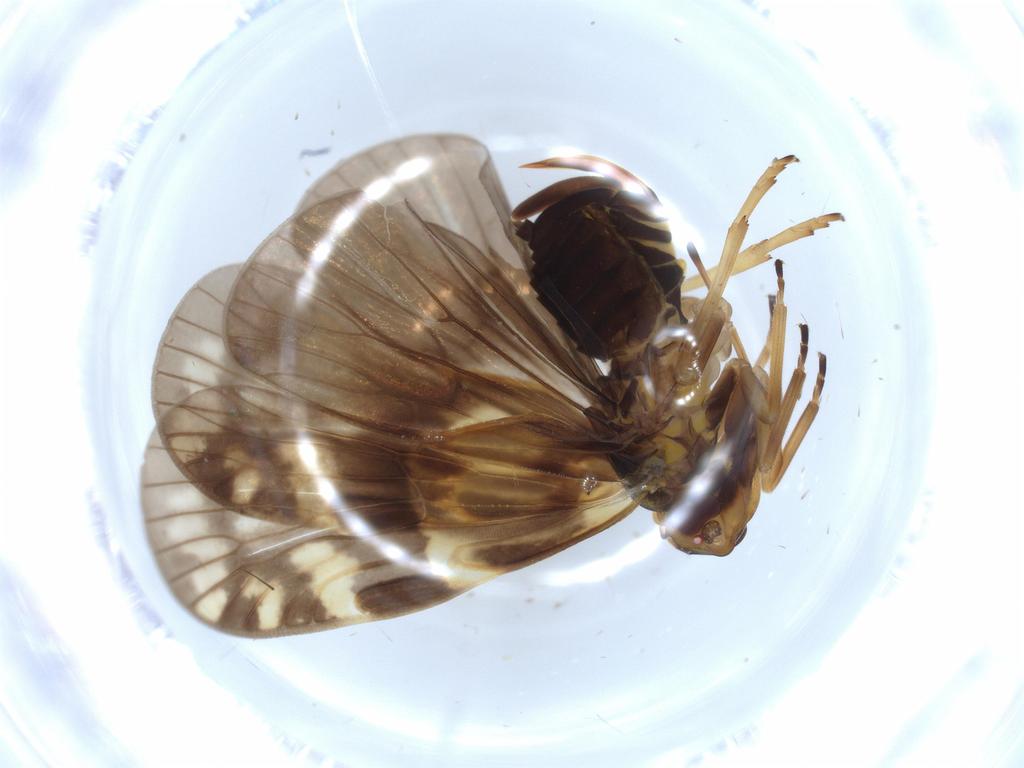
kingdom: Animalia
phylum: Arthropoda
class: Insecta
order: Hemiptera
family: Cixiidae
